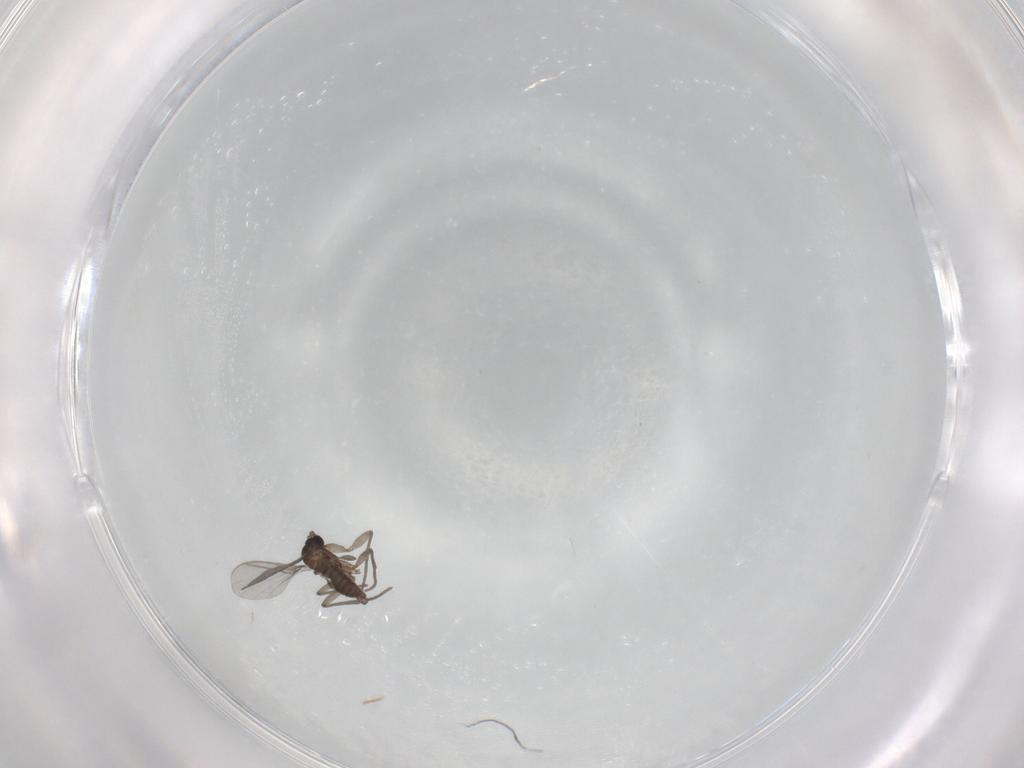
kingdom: Animalia
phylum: Arthropoda
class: Insecta
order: Diptera
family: Sciaridae
